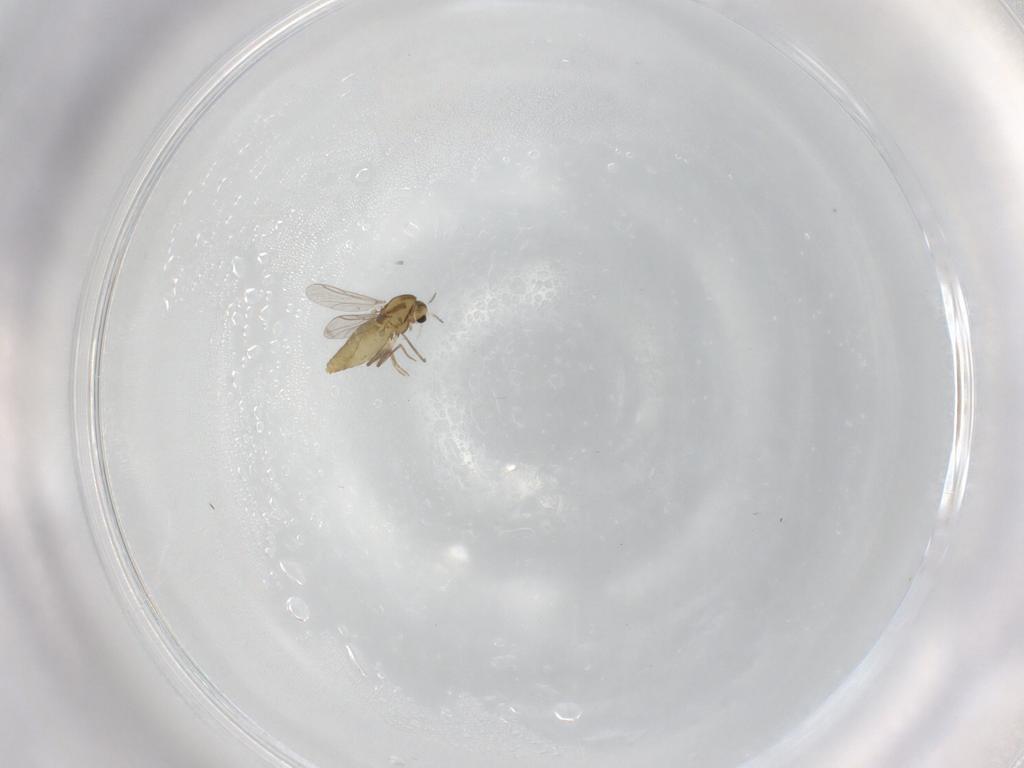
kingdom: Animalia
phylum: Arthropoda
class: Insecta
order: Diptera
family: Chironomidae
